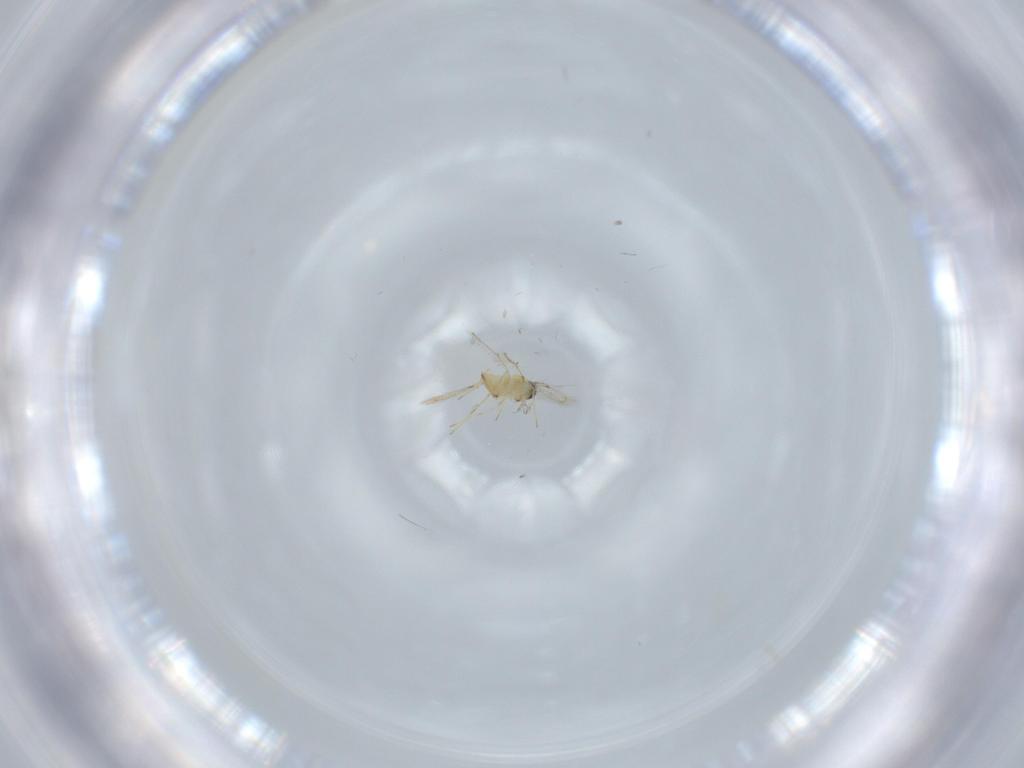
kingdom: Animalia
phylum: Arthropoda
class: Insecta
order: Hymenoptera
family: Trichogrammatidae
